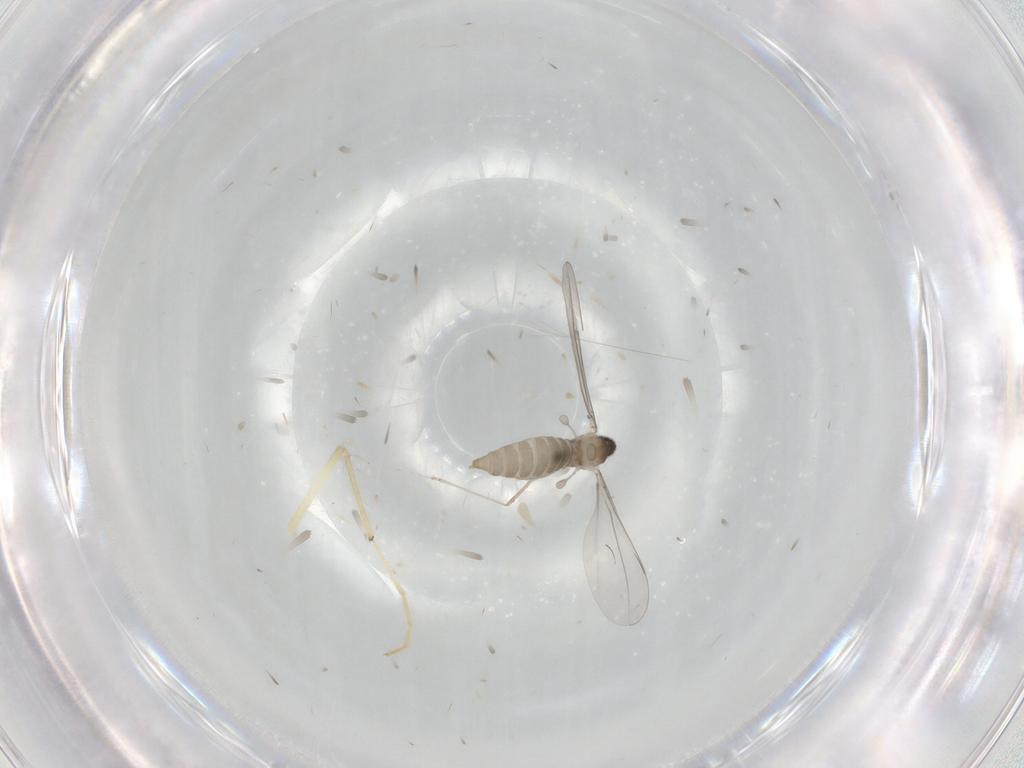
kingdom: Animalia
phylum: Arthropoda
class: Insecta
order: Diptera
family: Cecidomyiidae
